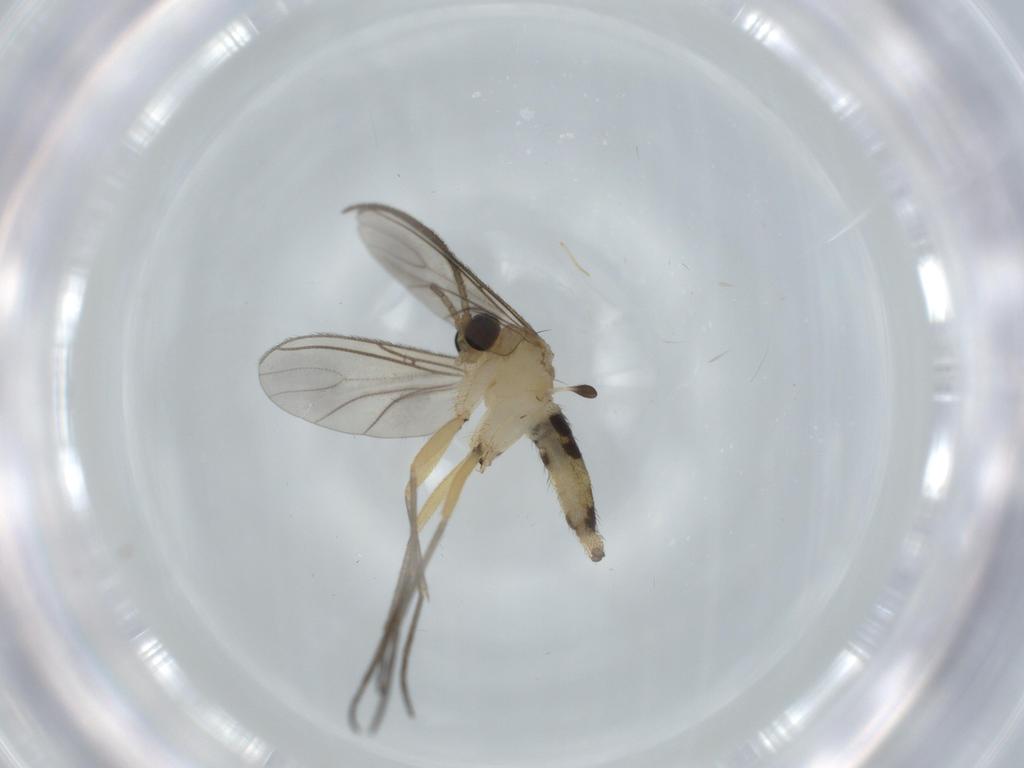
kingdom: Animalia
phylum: Arthropoda
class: Insecta
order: Diptera
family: Sciaridae
